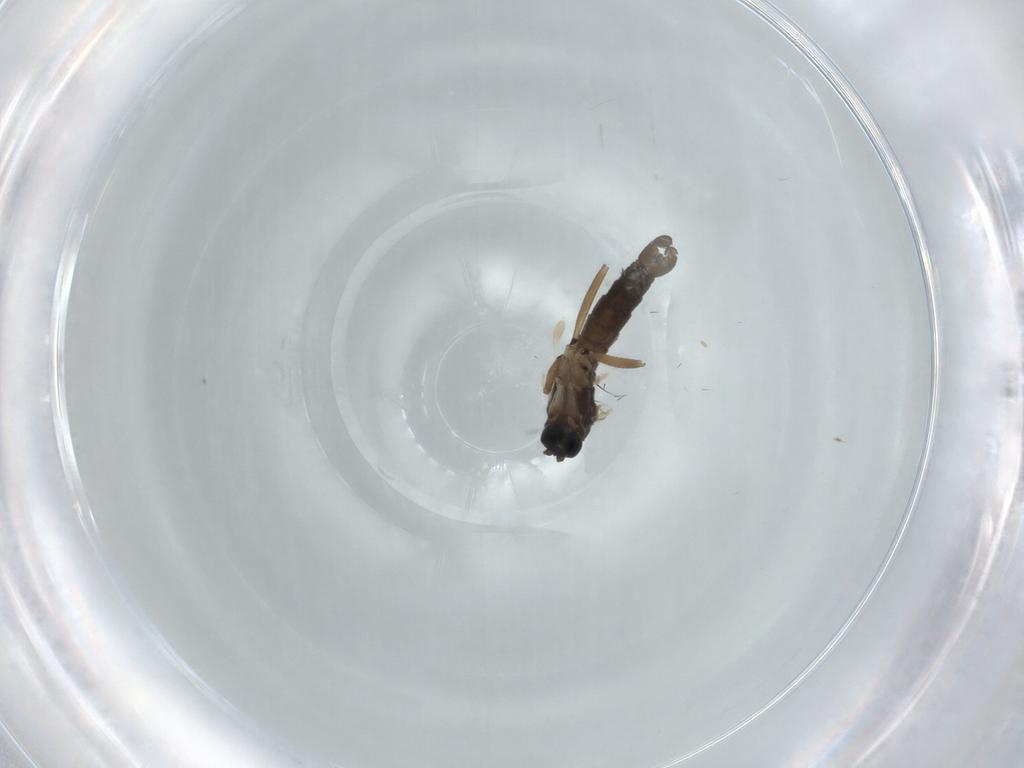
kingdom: Animalia
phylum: Arthropoda
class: Insecta
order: Diptera
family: Sciaridae
